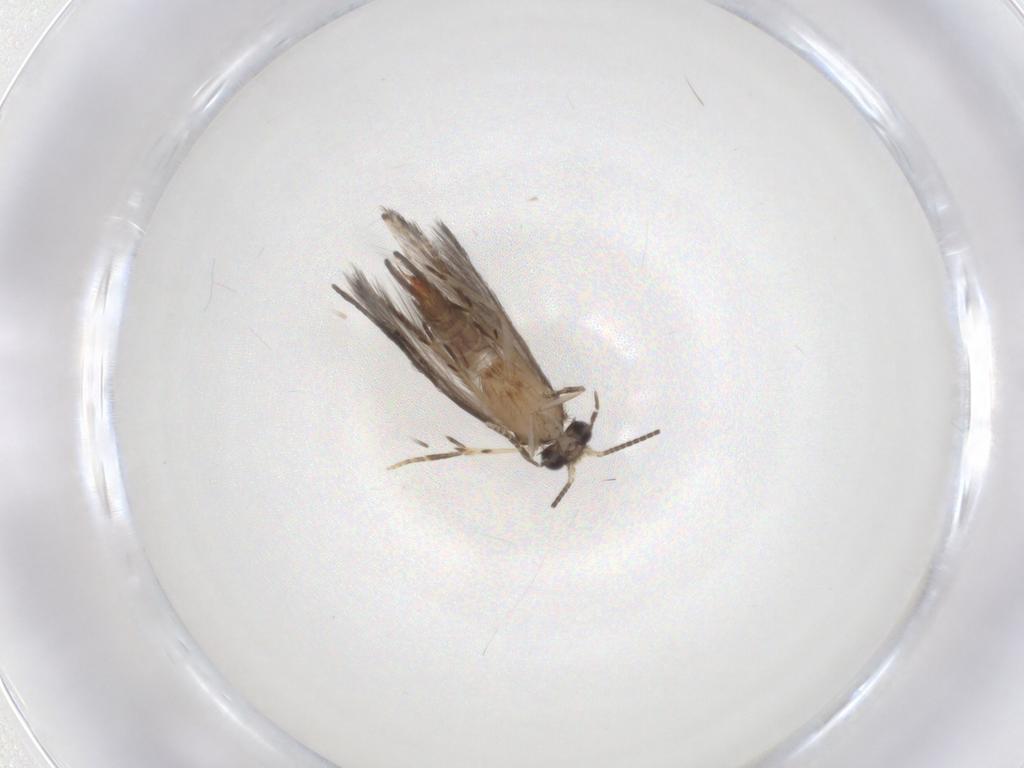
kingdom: Animalia
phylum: Arthropoda
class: Insecta
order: Trichoptera
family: Hydroptilidae
